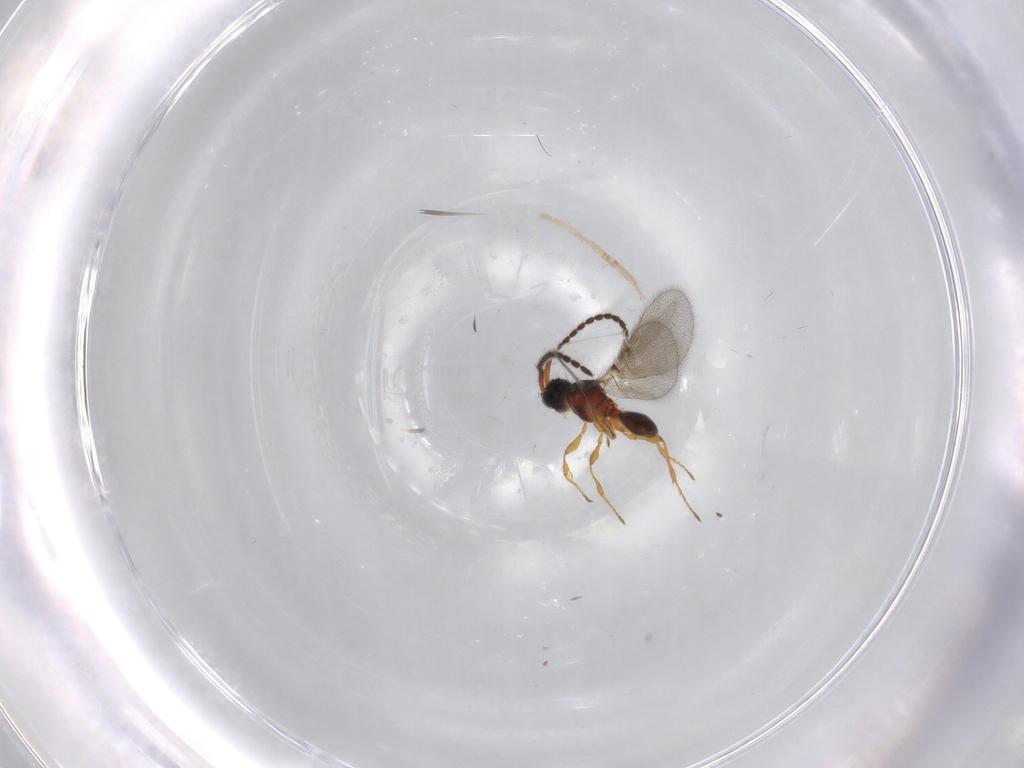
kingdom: Animalia
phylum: Arthropoda
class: Insecta
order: Hymenoptera
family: Diapriidae
